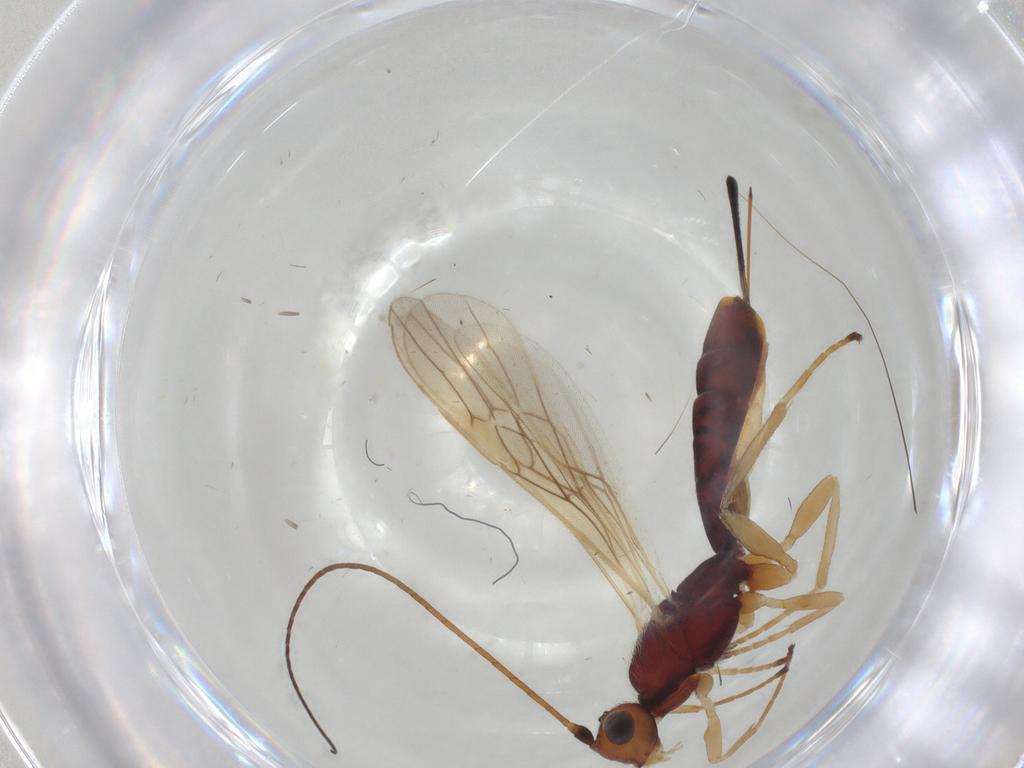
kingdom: Animalia
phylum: Arthropoda
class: Insecta
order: Hymenoptera
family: Braconidae
